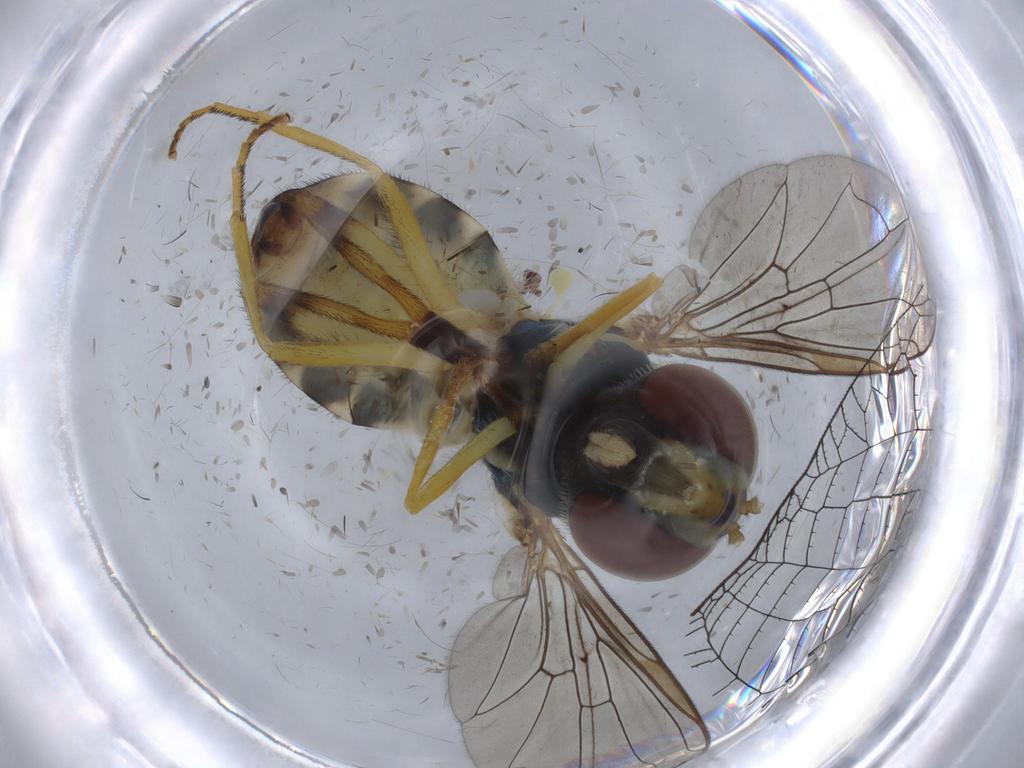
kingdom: Animalia
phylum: Arthropoda
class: Insecta
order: Diptera
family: Syrphidae
